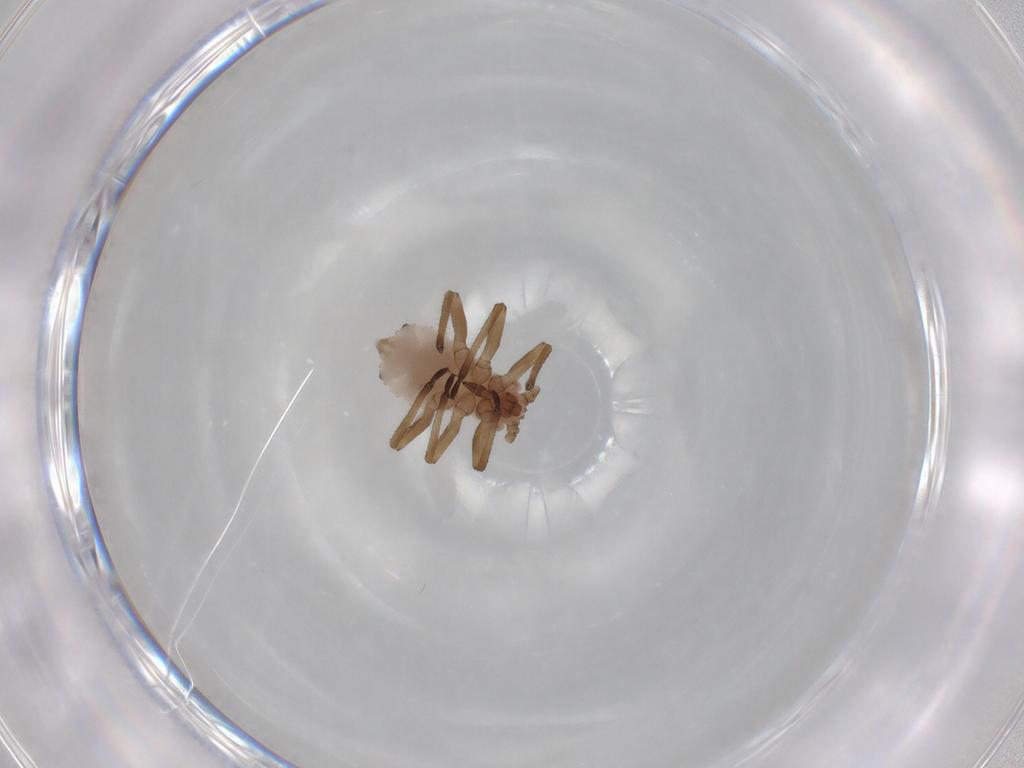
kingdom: Animalia
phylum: Arthropoda
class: Insecta
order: Hemiptera
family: Aphididae
